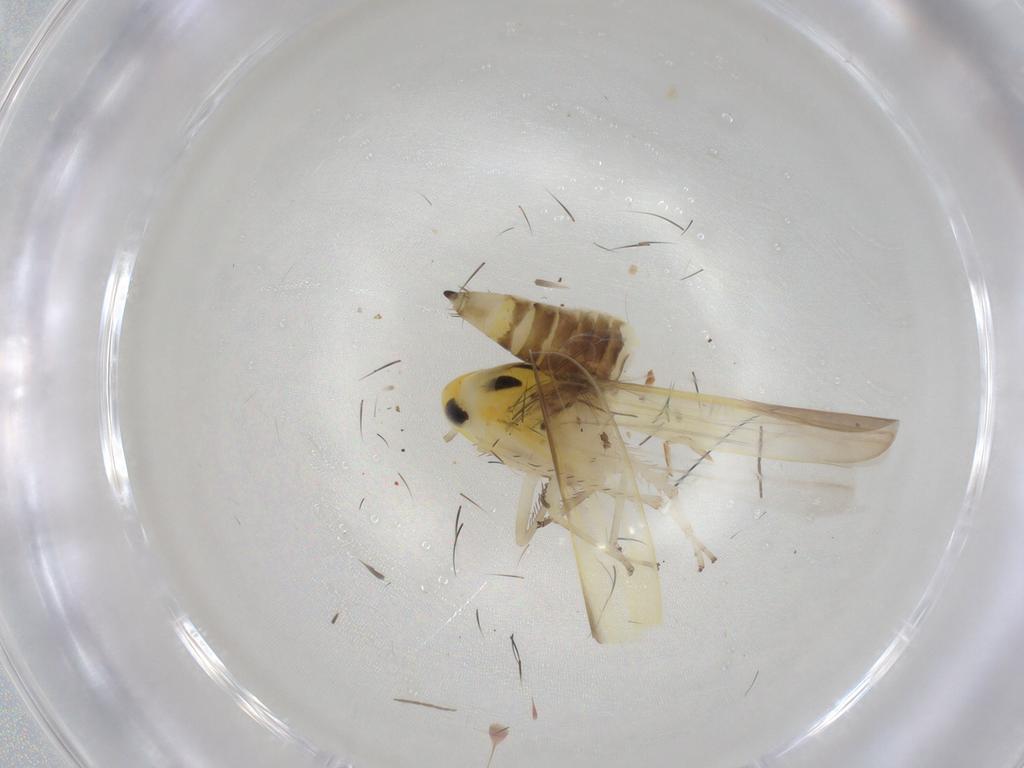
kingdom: Animalia
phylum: Arthropoda
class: Insecta
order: Hemiptera
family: Cicadellidae
